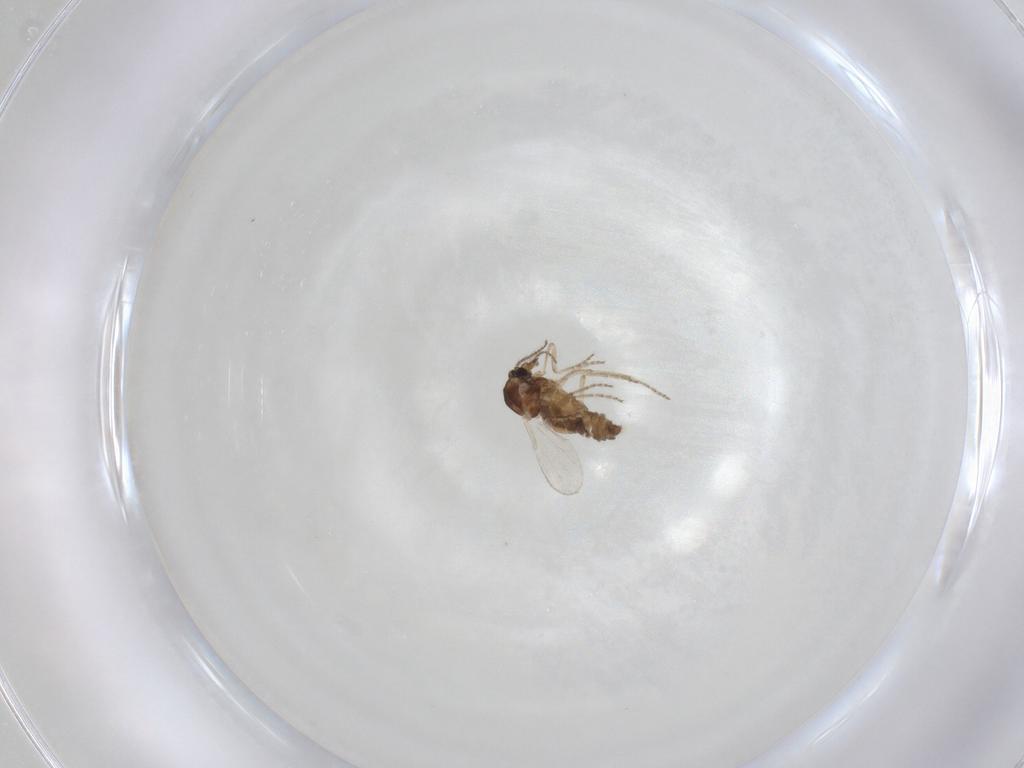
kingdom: Animalia
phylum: Arthropoda
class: Insecta
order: Diptera
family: Ceratopogonidae
